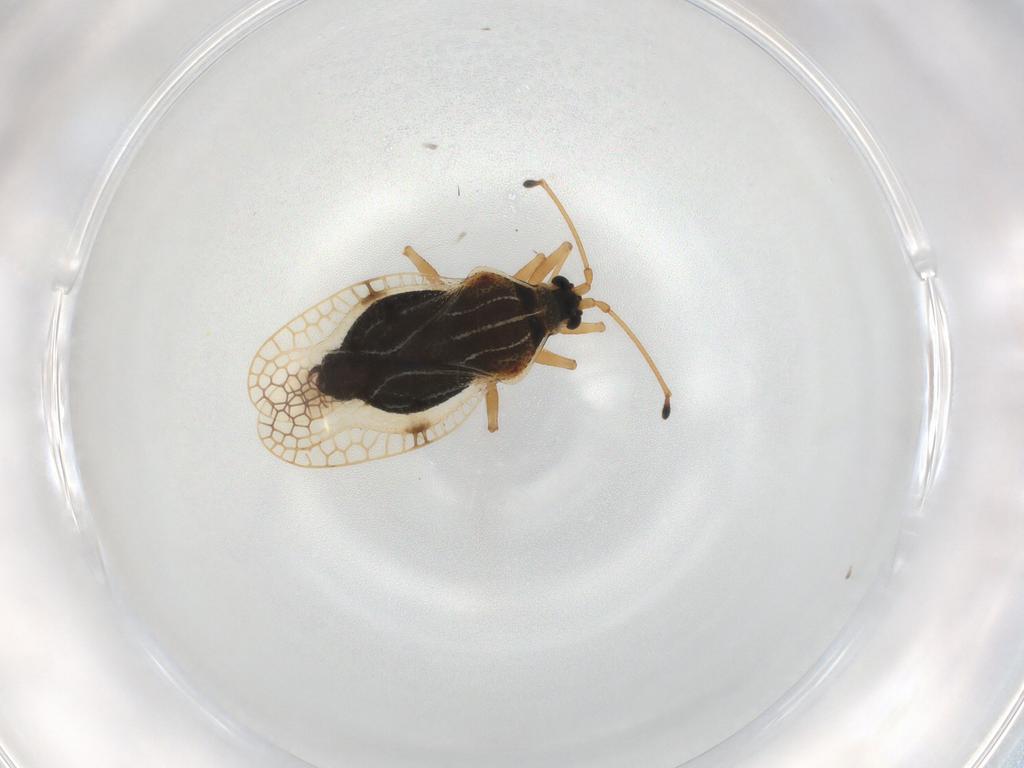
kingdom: Animalia
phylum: Arthropoda
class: Insecta
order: Hemiptera
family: Tingidae
